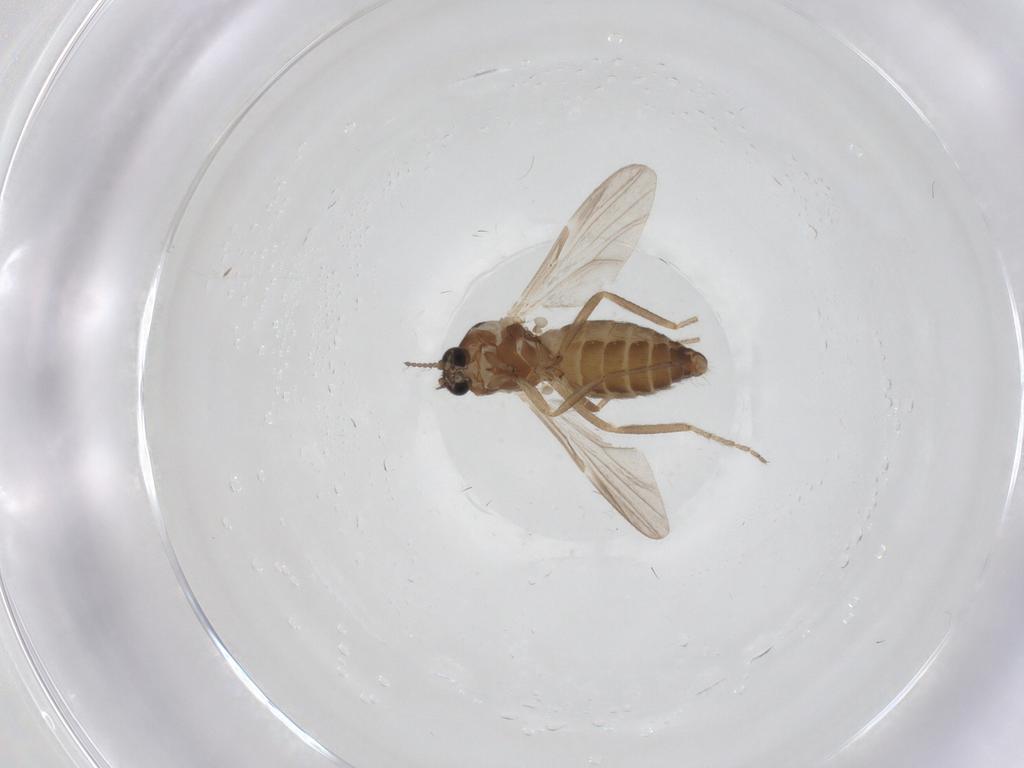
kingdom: Animalia
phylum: Arthropoda
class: Insecta
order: Diptera
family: Ceratopogonidae
